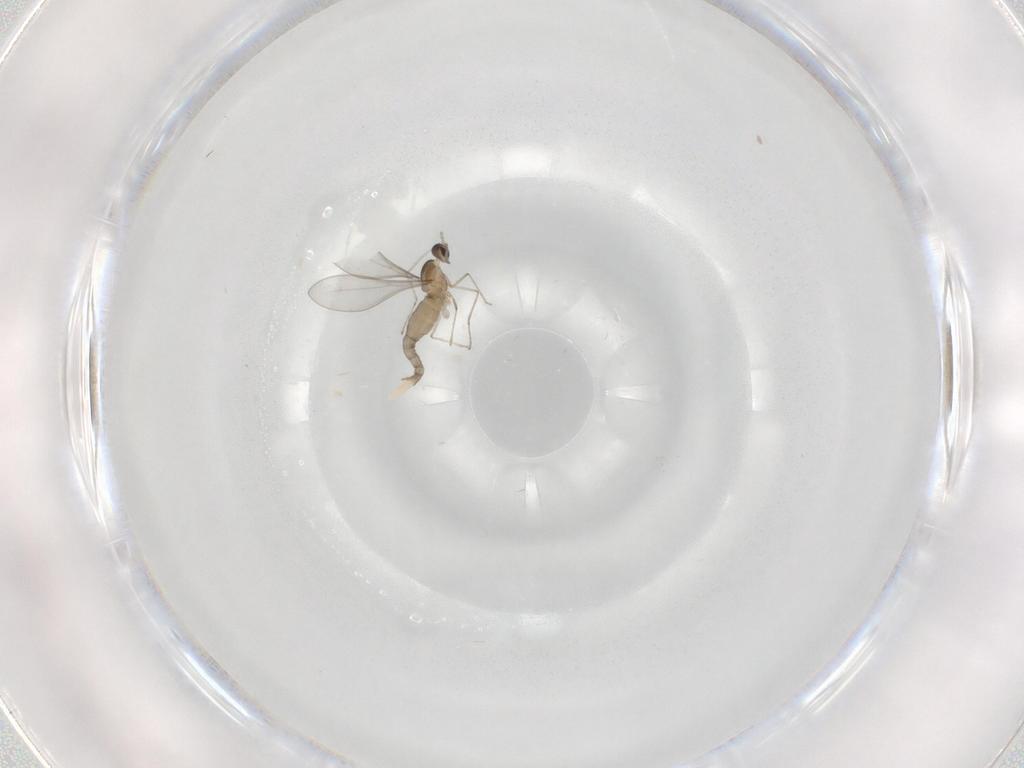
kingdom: Animalia
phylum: Arthropoda
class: Insecta
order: Diptera
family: Cecidomyiidae
